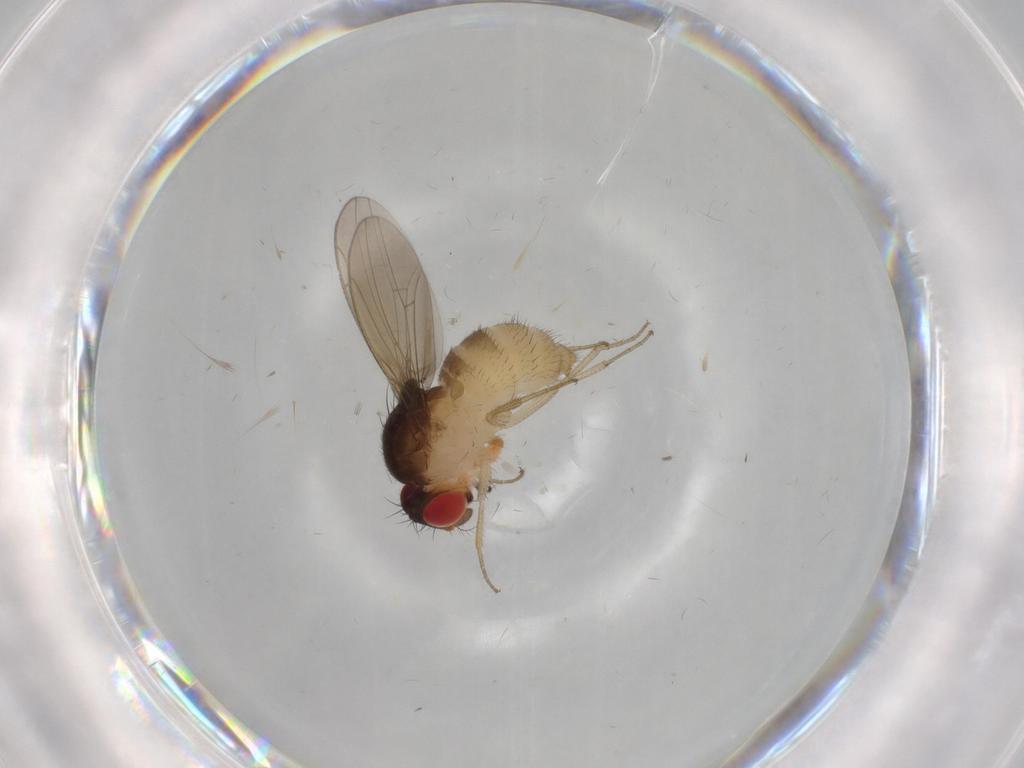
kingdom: Animalia
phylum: Arthropoda
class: Insecta
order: Diptera
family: Drosophilidae
